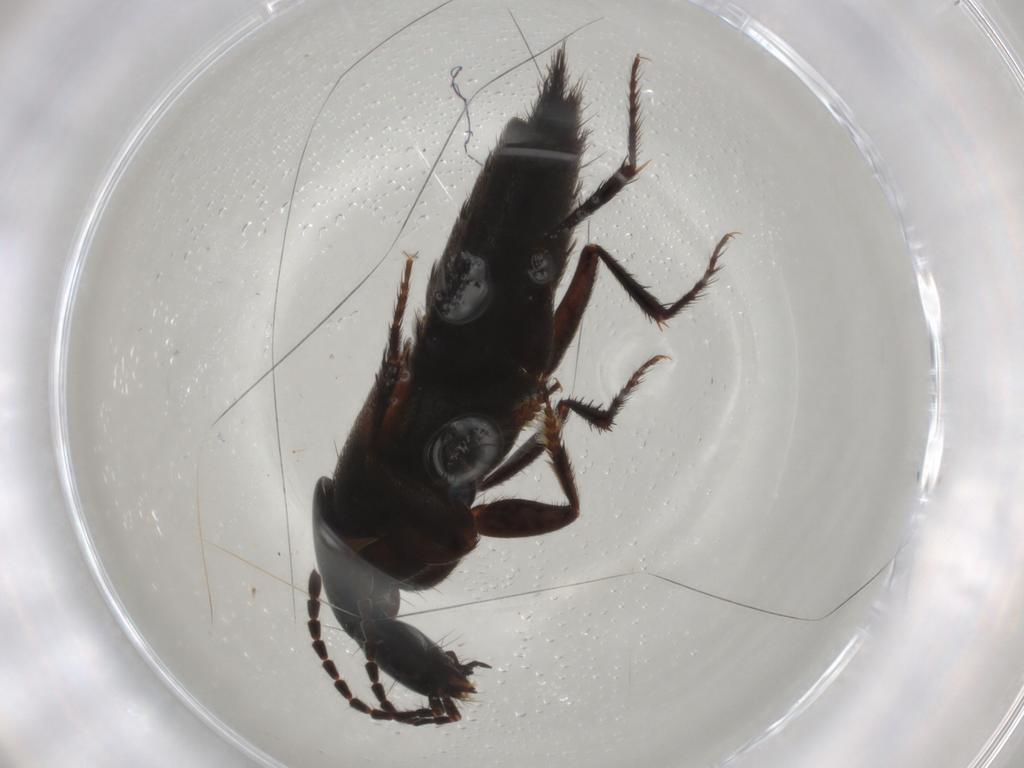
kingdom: Animalia
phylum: Arthropoda
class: Insecta
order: Coleoptera
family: Staphylinidae
